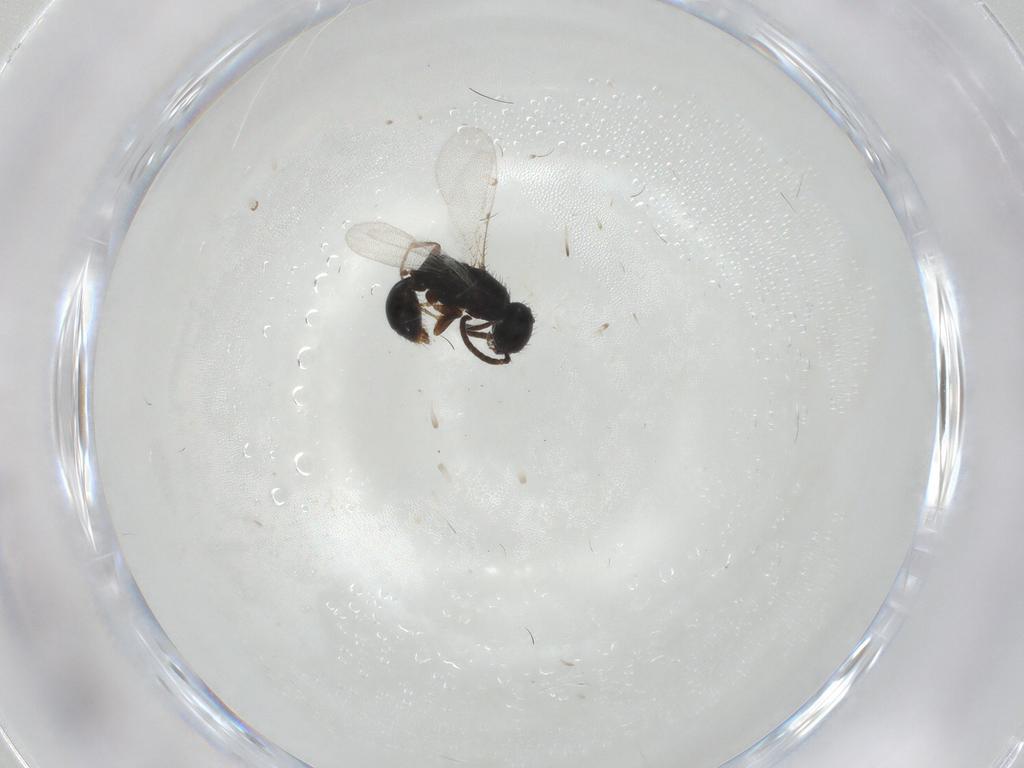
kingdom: Animalia
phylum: Arthropoda
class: Insecta
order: Hymenoptera
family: Bethylidae
